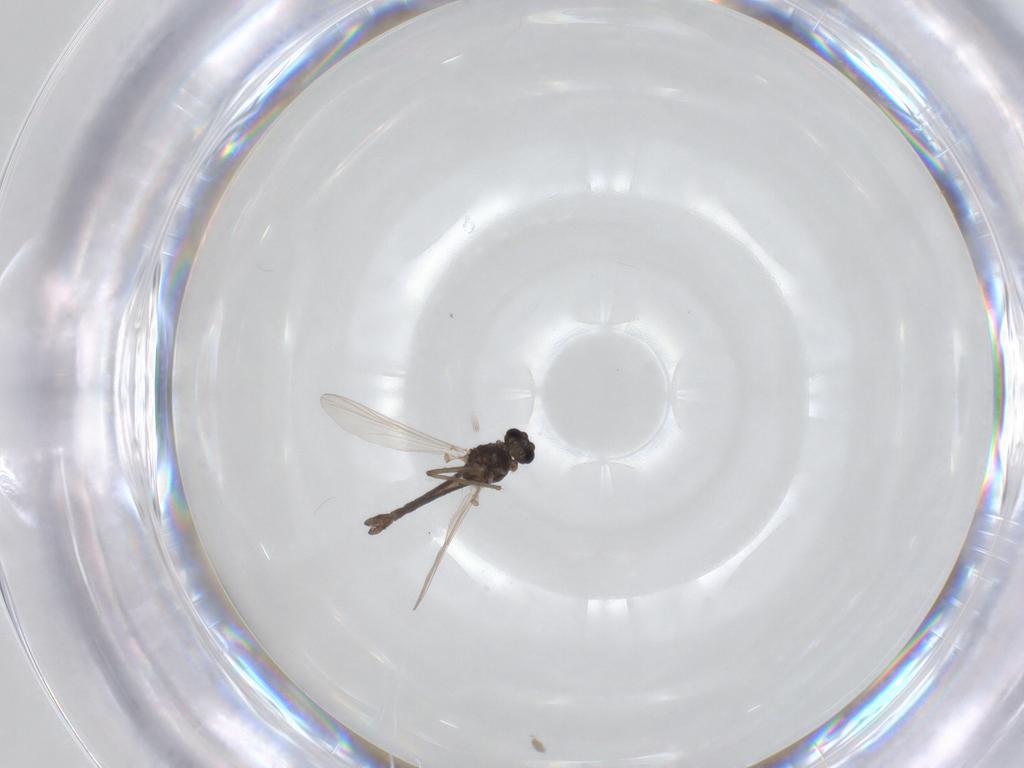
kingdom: Animalia
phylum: Arthropoda
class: Insecta
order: Diptera
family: Chironomidae
